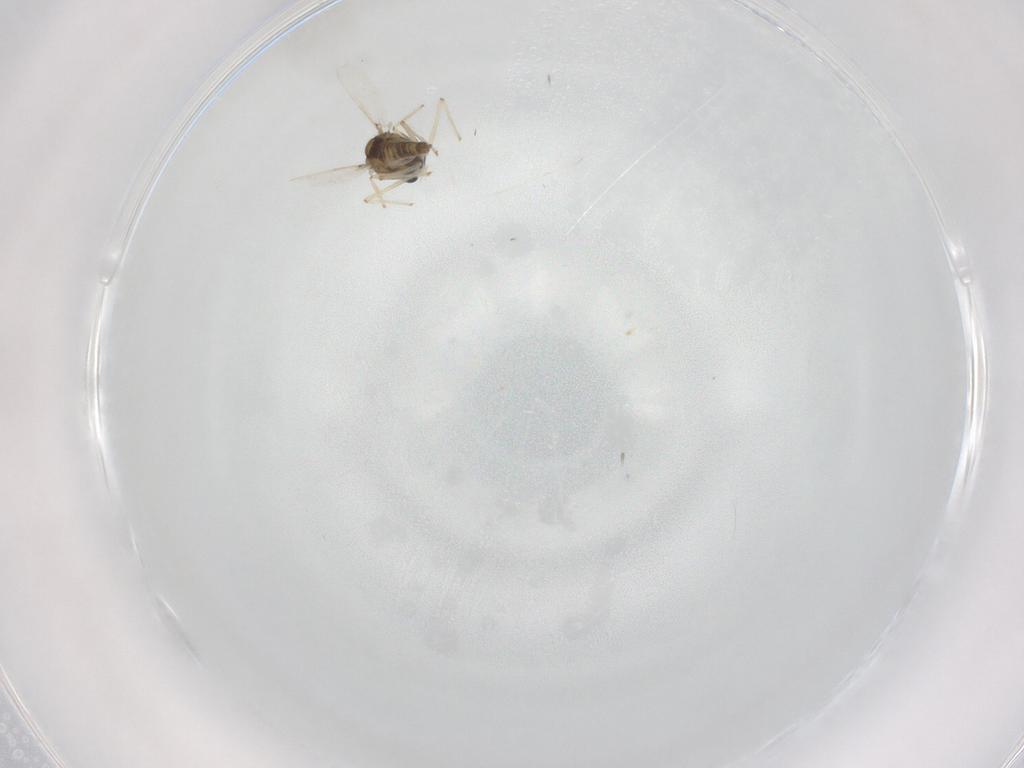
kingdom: Animalia
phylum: Arthropoda
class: Insecta
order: Diptera
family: Chironomidae
